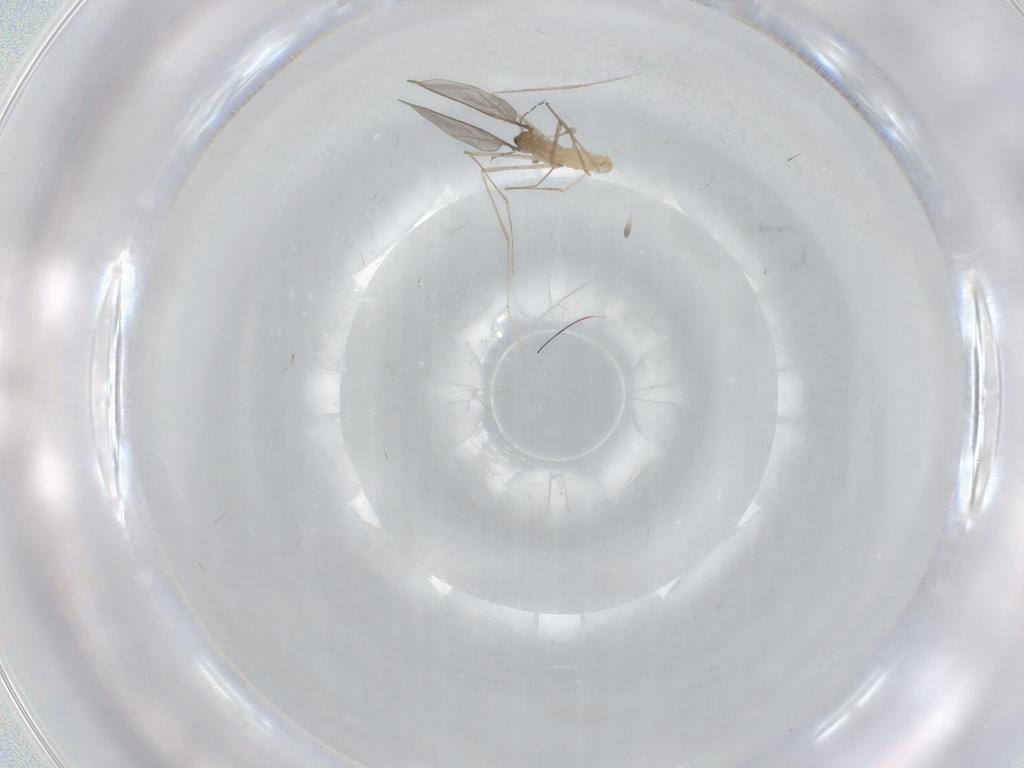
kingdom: Animalia
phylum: Arthropoda
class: Insecta
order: Diptera
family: Cecidomyiidae
